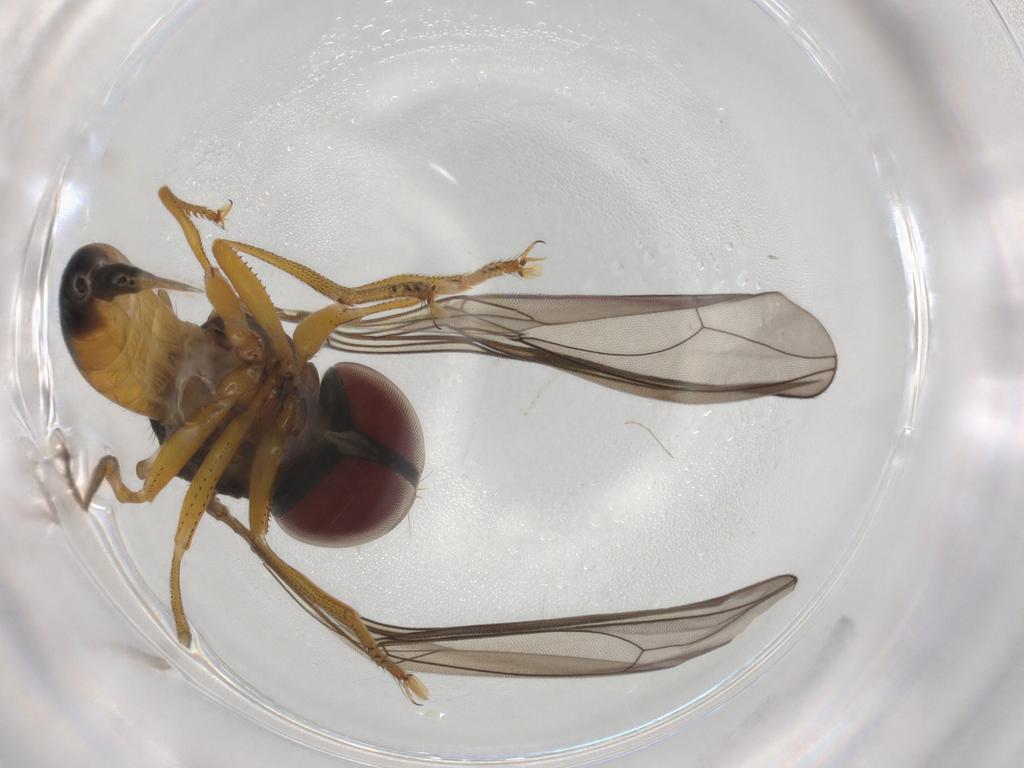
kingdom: Animalia
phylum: Arthropoda
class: Insecta
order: Diptera
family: Pipunculidae
